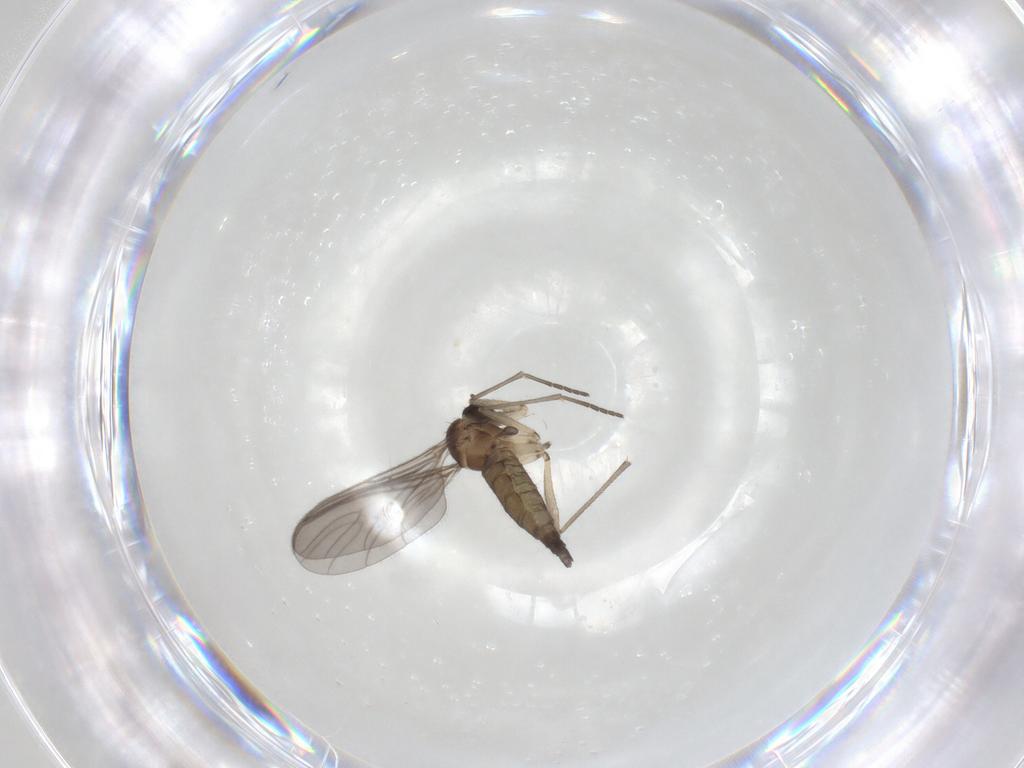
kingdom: Animalia
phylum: Arthropoda
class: Insecta
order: Diptera
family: Sciaridae
